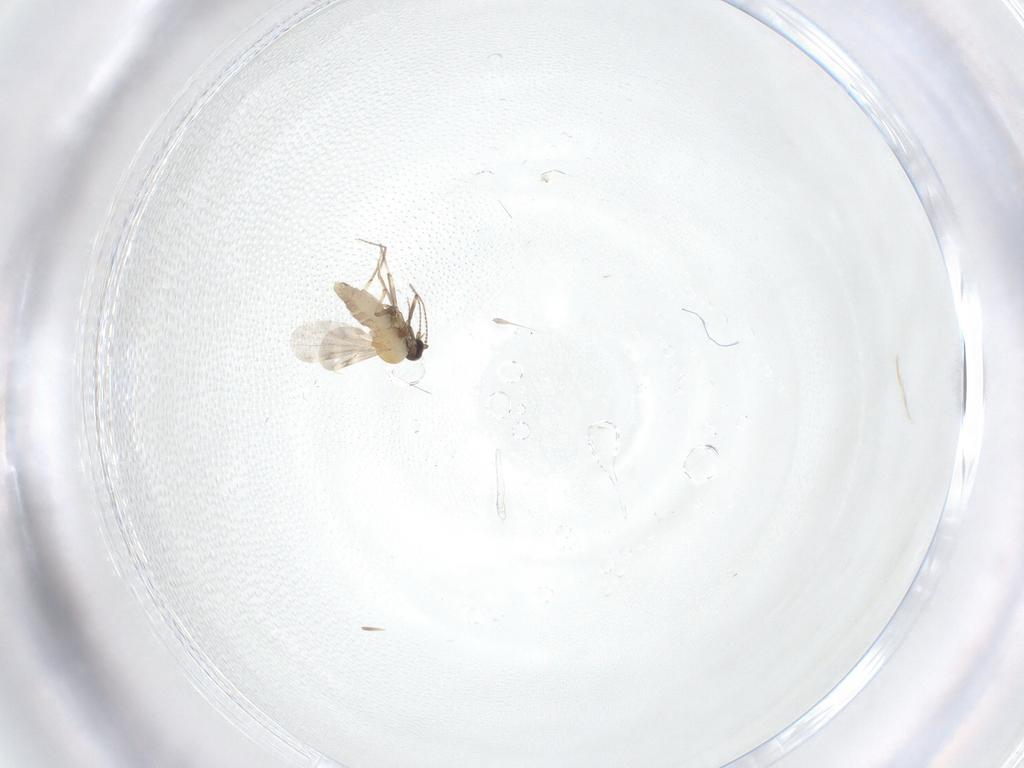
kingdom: Animalia
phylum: Arthropoda
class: Insecta
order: Diptera
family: Ceratopogonidae
